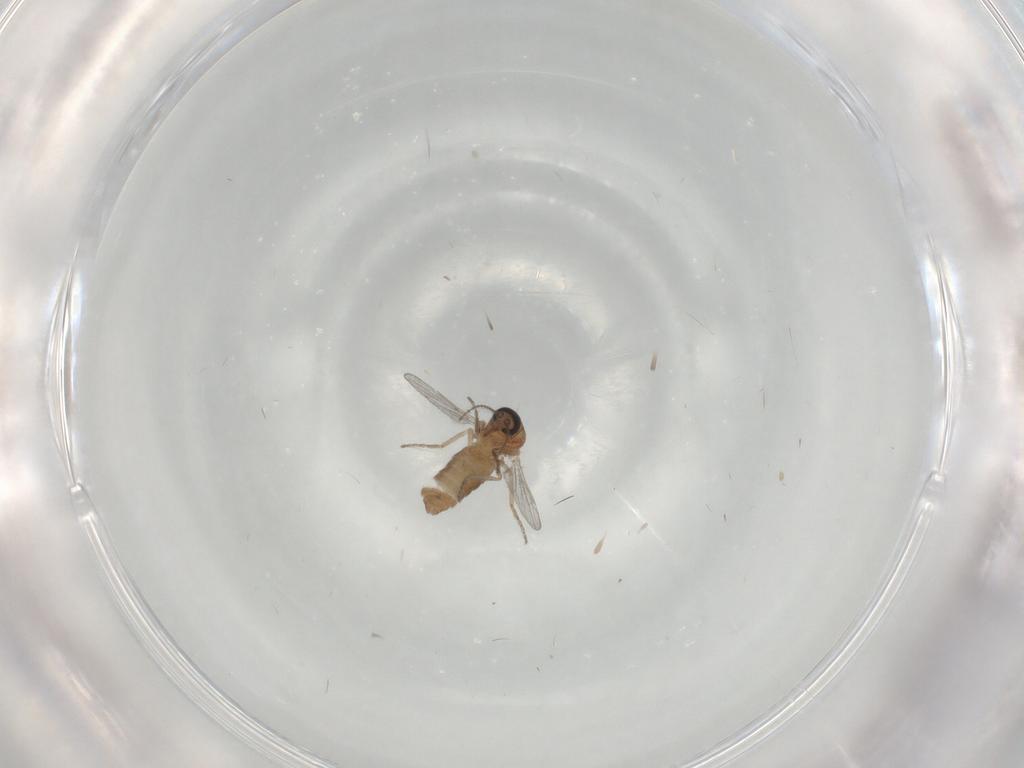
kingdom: Animalia
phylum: Arthropoda
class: Insecta
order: Diptera
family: Ceratopogonidae
